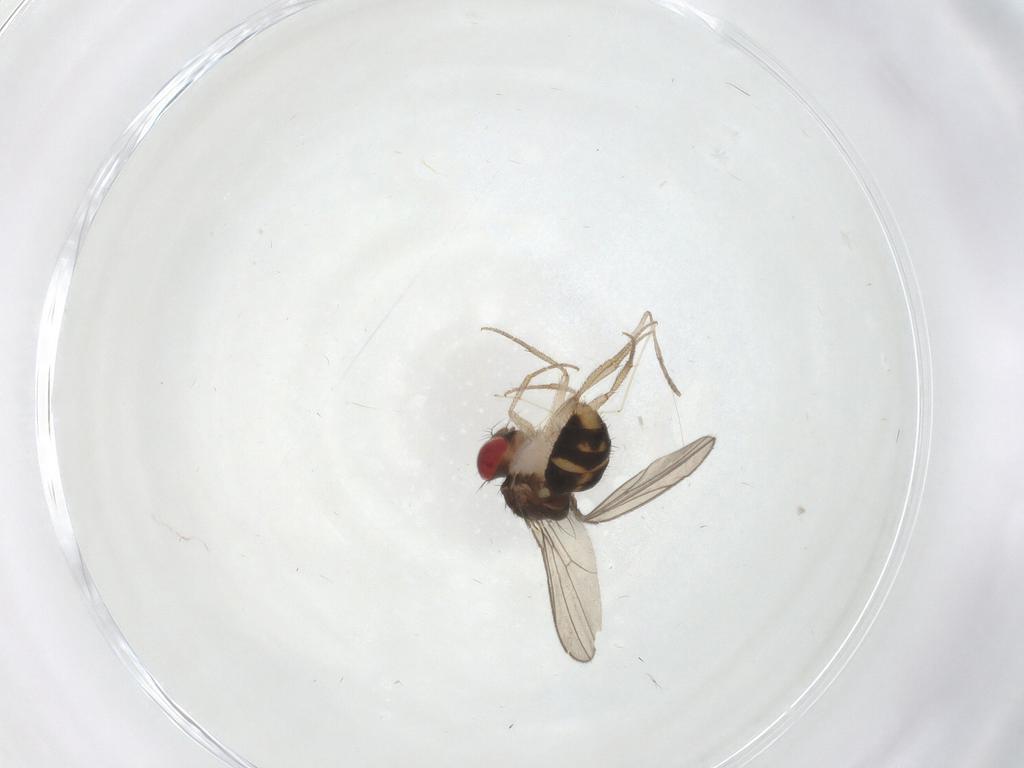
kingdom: Animalia
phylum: Arthropoda
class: Insecta
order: Diptera
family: Drosophilidae
